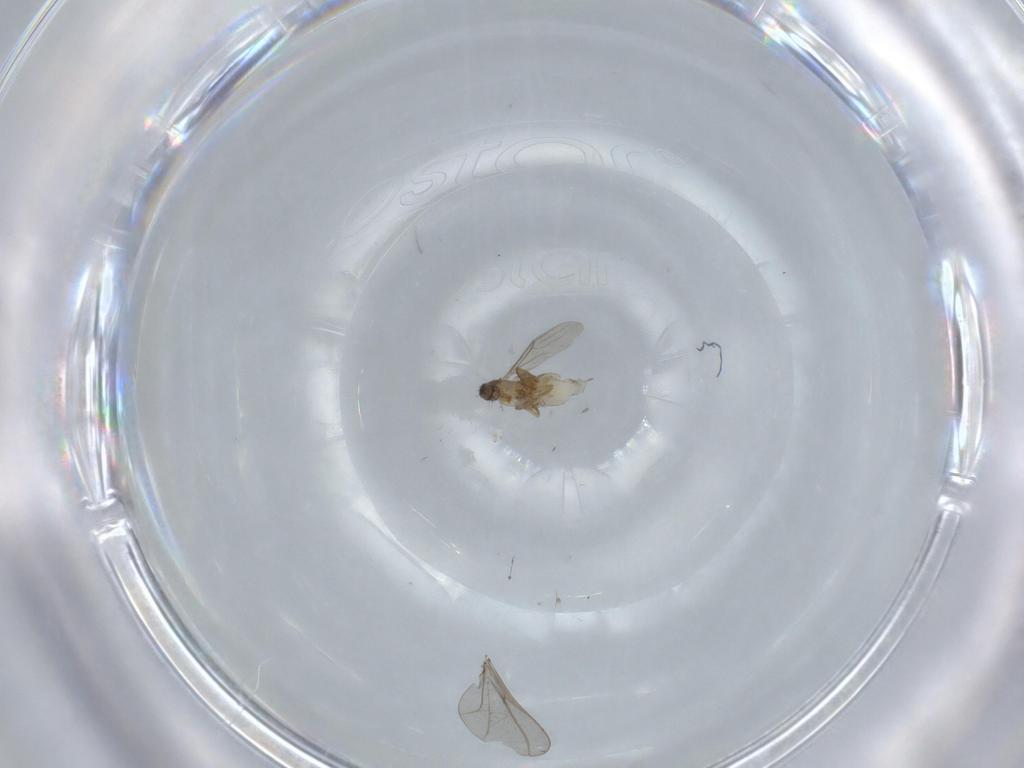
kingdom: Animalia
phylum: Arthropoda
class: Insecta
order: Diptera
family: Phoridae
